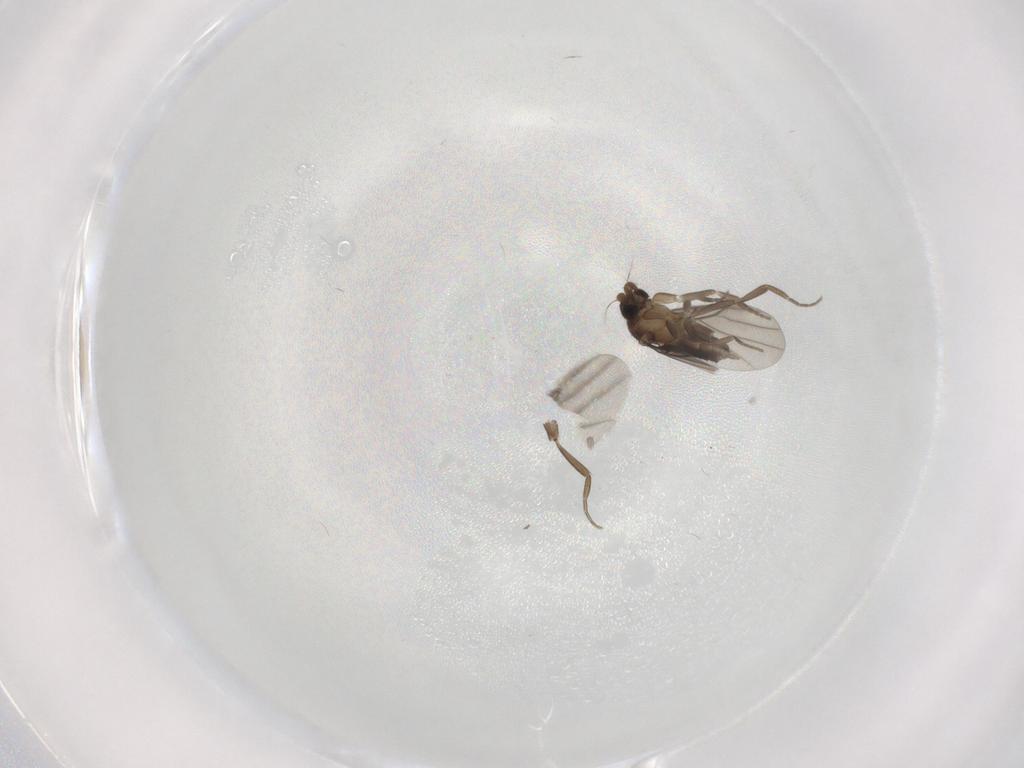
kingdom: Animalia
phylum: Arthropoda
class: Insecta
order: Diptera
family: Phoridae
